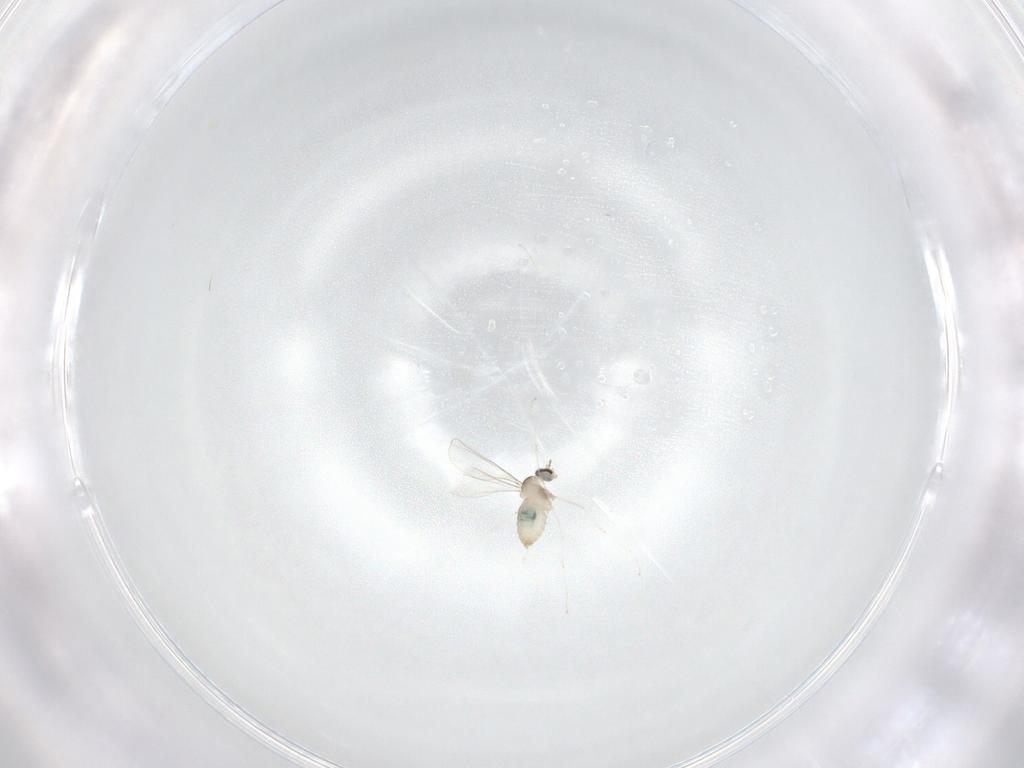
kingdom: Animalia
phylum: Arthropoda
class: Insecta
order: Diptera
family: Cecidomyiidae
